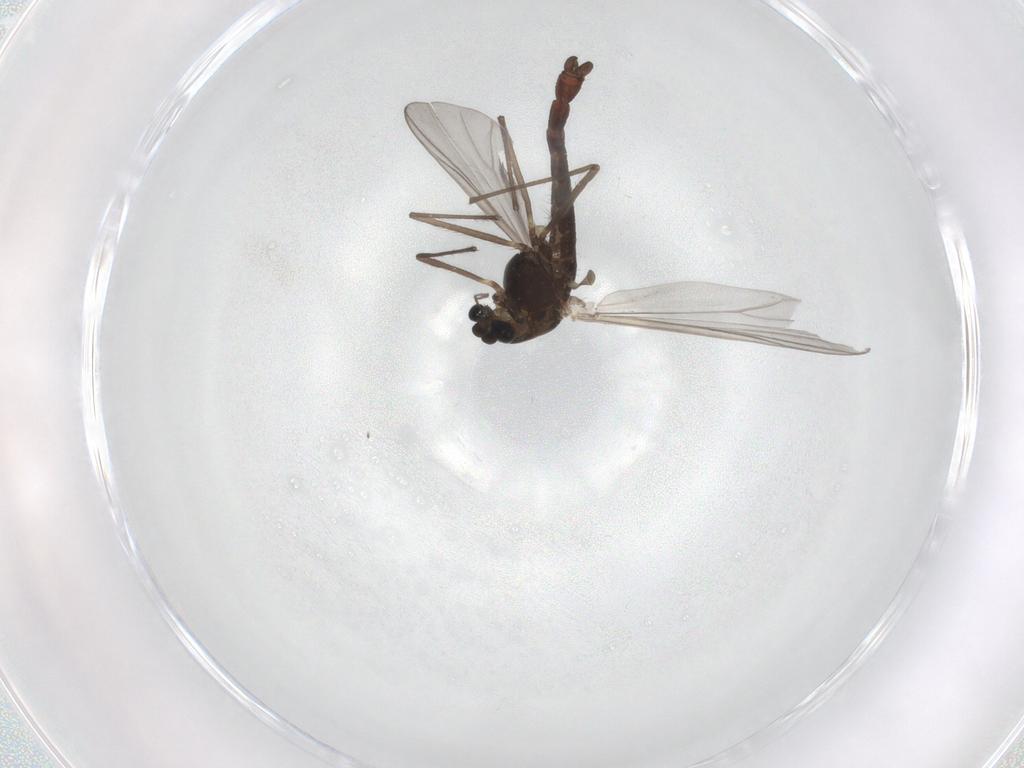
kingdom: Animalia
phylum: Arthropoda
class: Insecta
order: Diptera
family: Chironomidae
